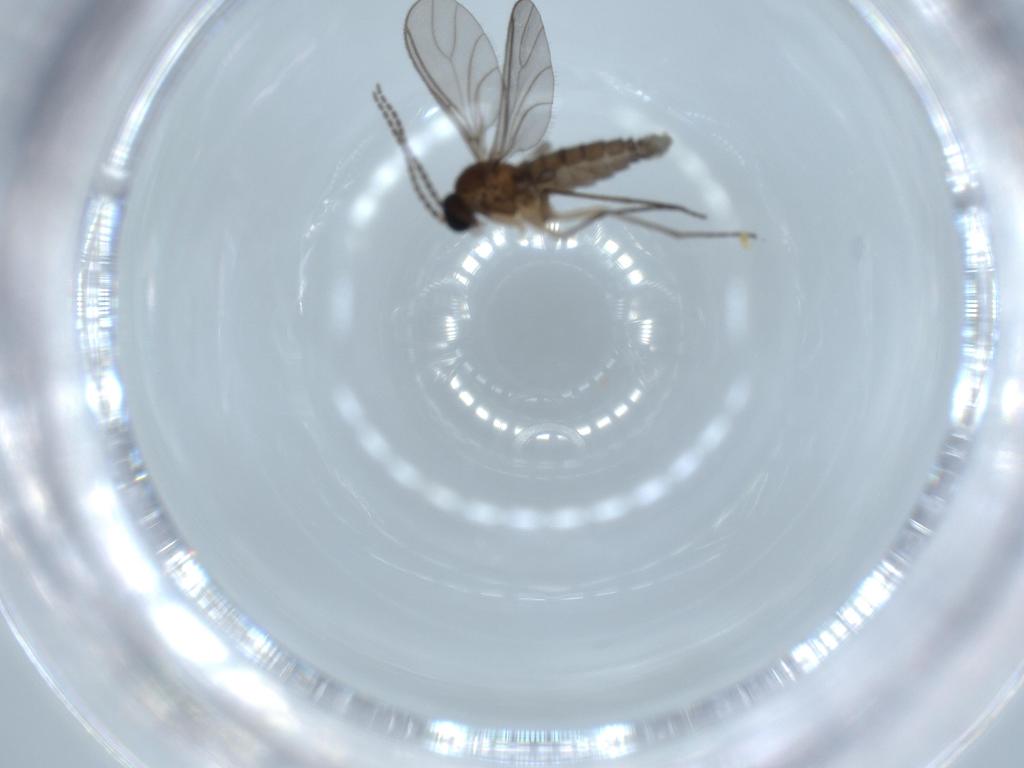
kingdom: Animalia
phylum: Arthropoda
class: Insecta
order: Diptera
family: Sciaridae
